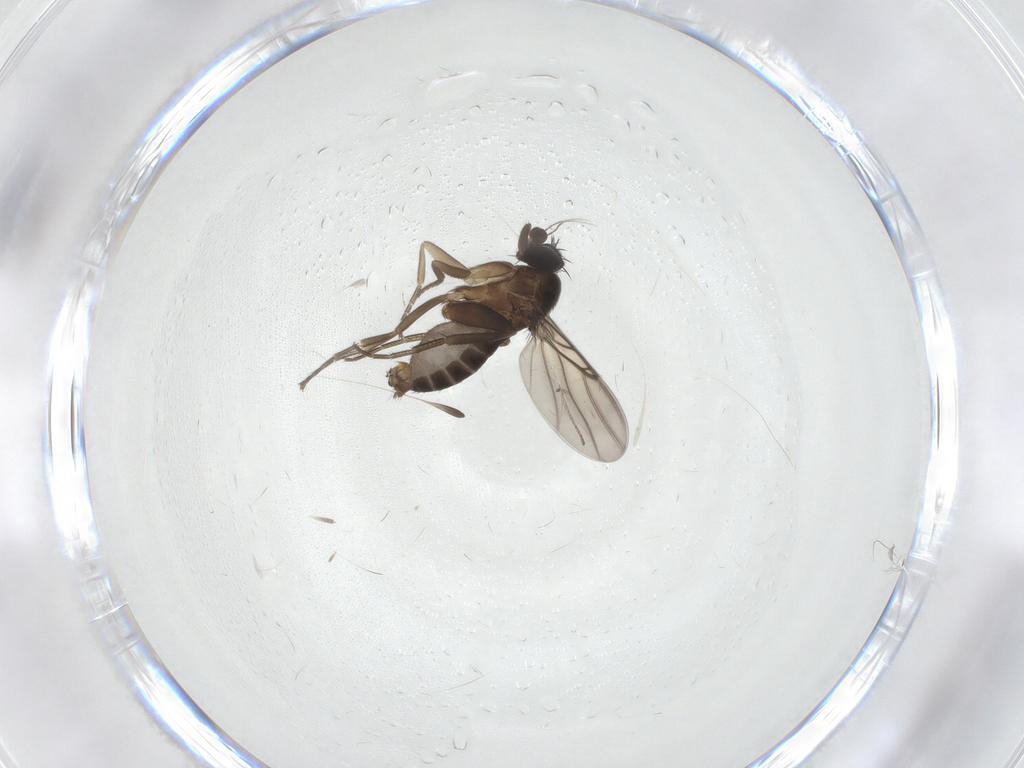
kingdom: Animalia
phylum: Arthropoda
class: Insecta
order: Diptera
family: Phoridae
